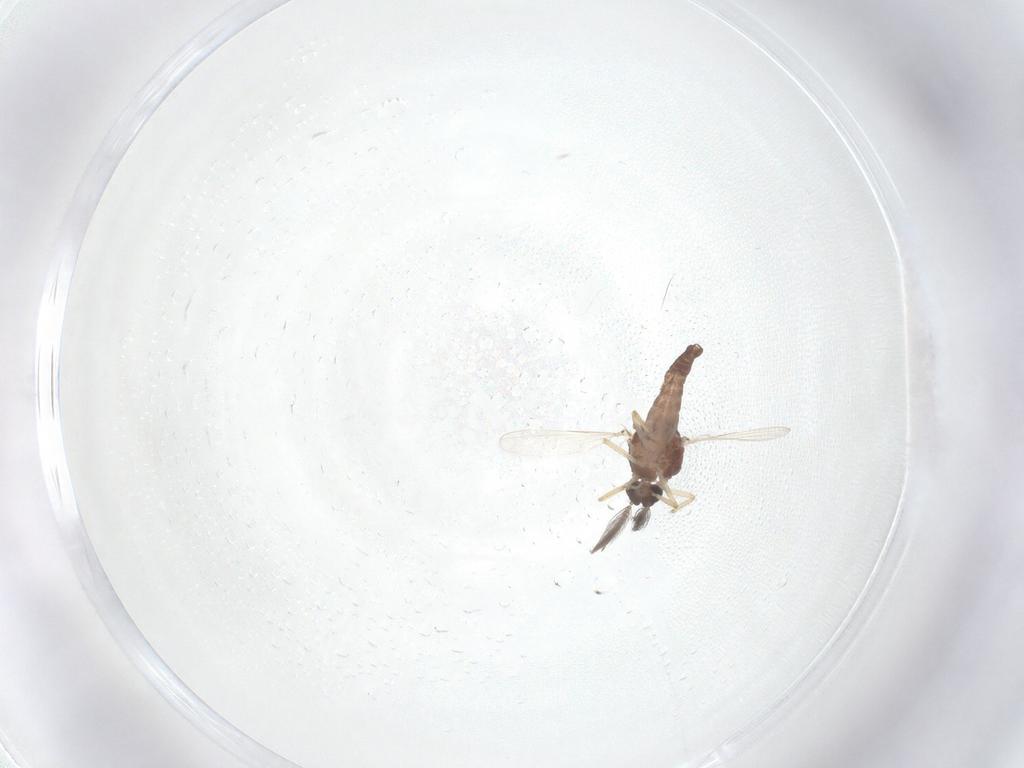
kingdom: Animalia
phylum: Arthropoda
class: Insecta
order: Diptera
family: Ceratopogonidae
